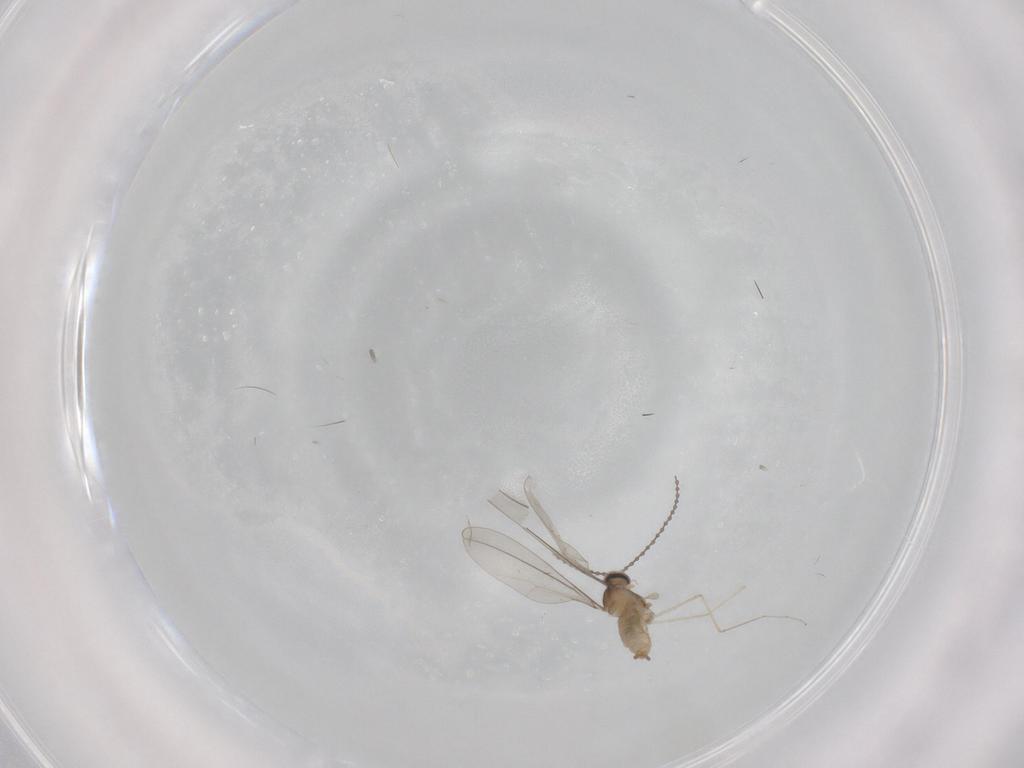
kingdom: Animalia
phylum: Arthropoda
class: Insecta
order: Diptera
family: Cecidomyiidae
